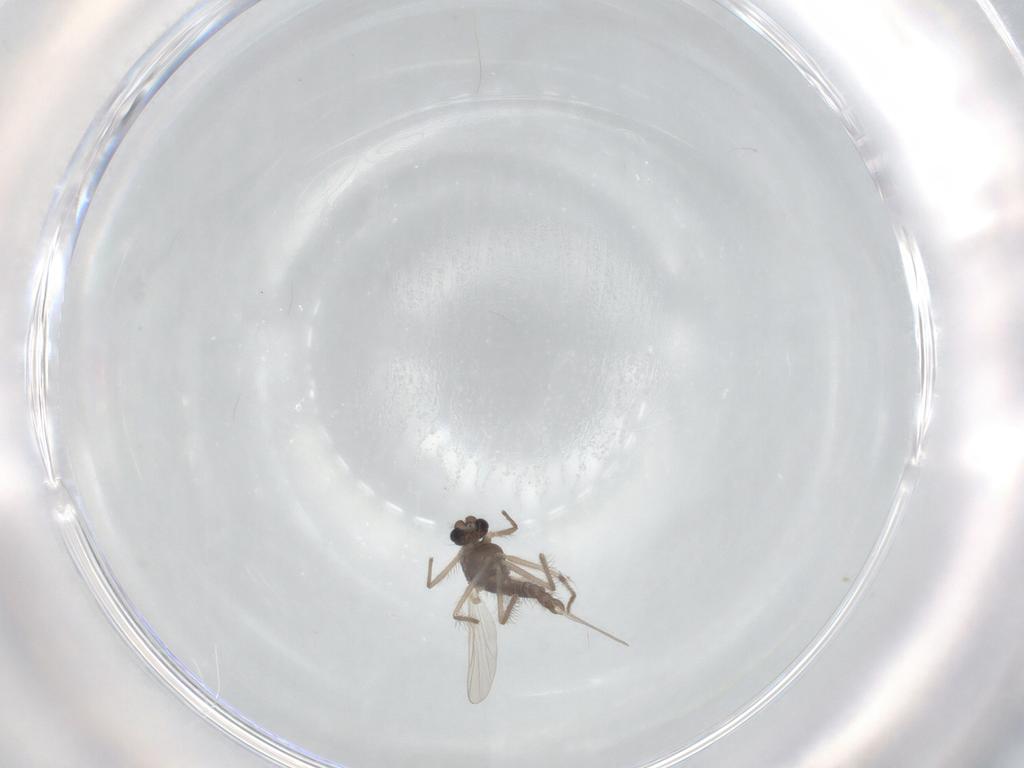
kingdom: Animalia
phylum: Arthropoda
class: Insecta
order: Diptera
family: Chironomidae
